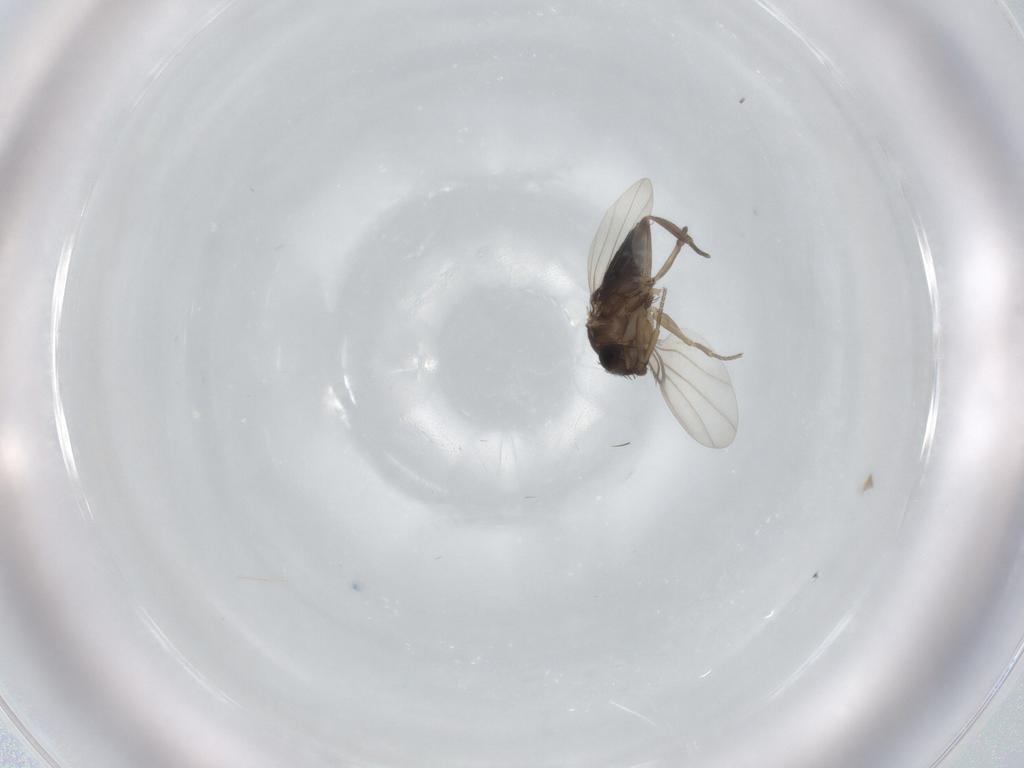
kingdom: Animalia
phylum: Arthropoda
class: Insecta
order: Diptera
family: Phoridae
